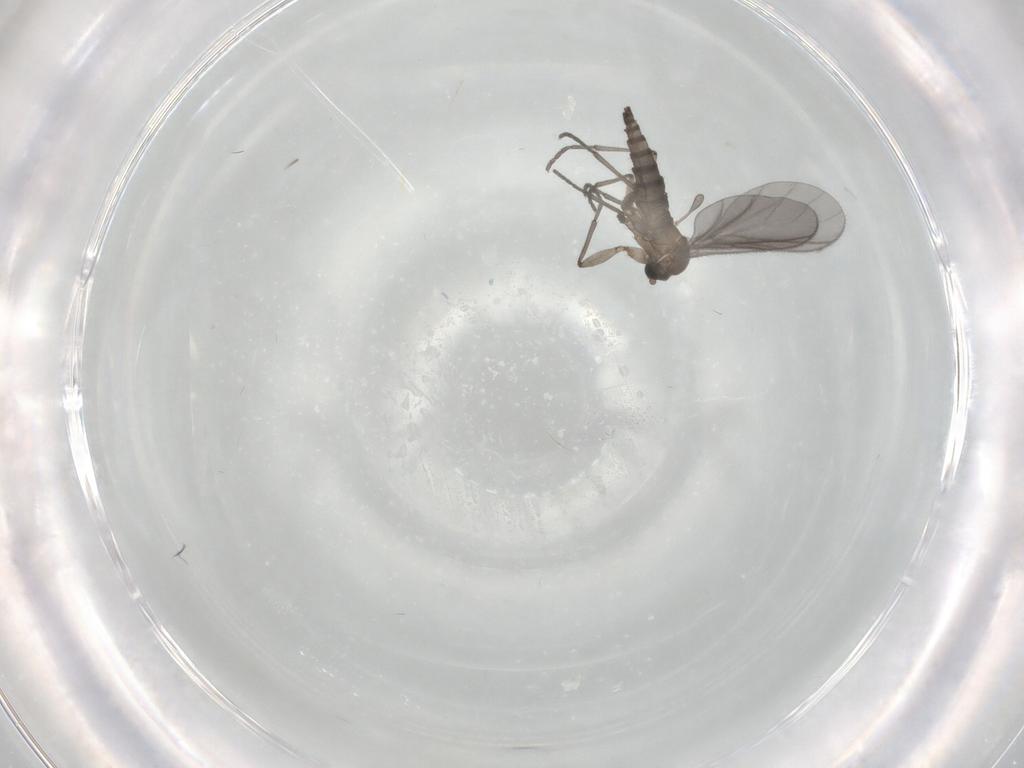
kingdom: Animalia
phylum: Arthropoda
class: Insecta
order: Diptera
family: Sciaridae
